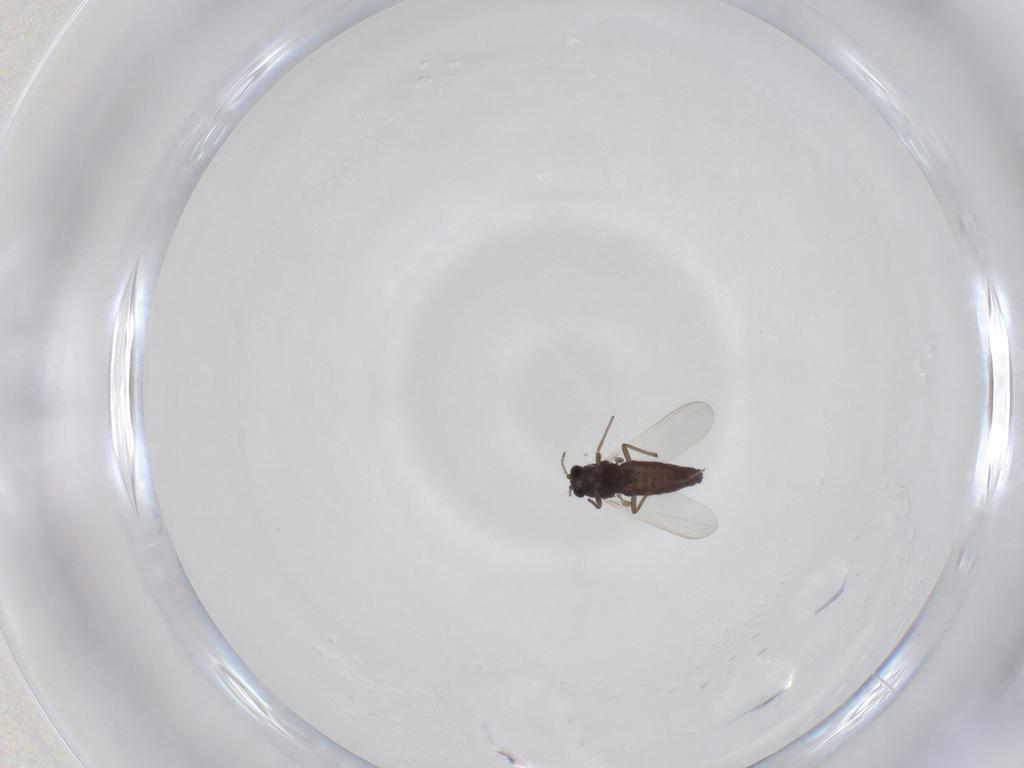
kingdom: Animalia
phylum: Arthropoda
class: Insecta
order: Diptera
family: Chironomidae
